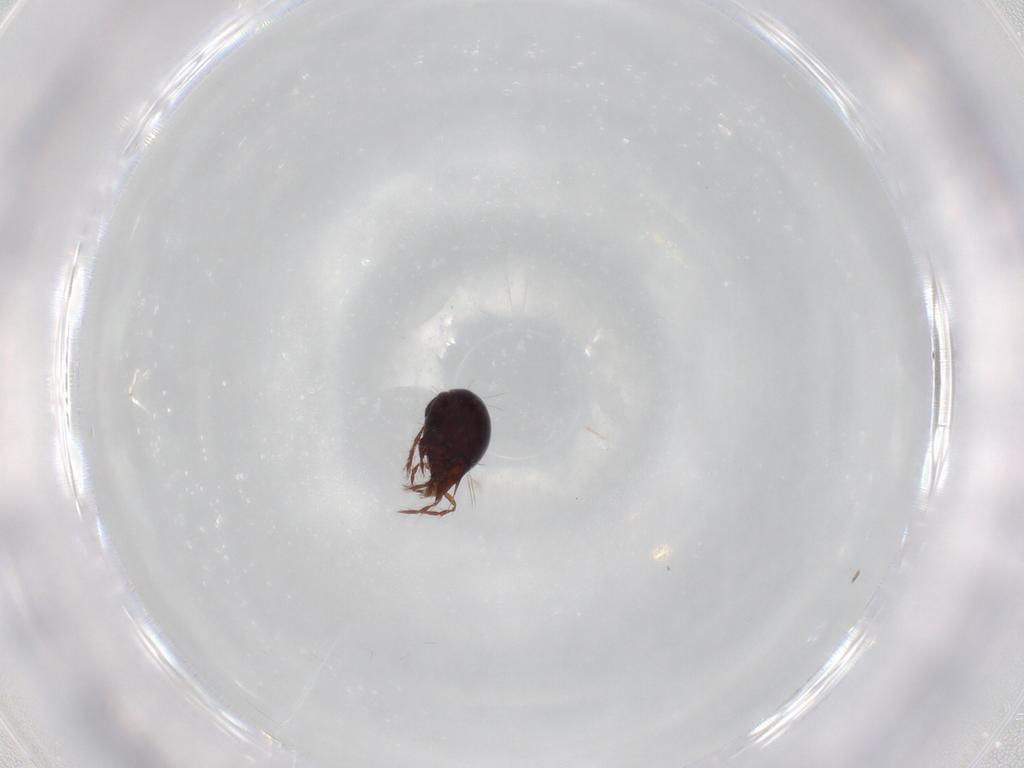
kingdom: Animalia
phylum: Arthropoda
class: Arachnida
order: Sarcoptiformes
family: Ceratoppiidae
